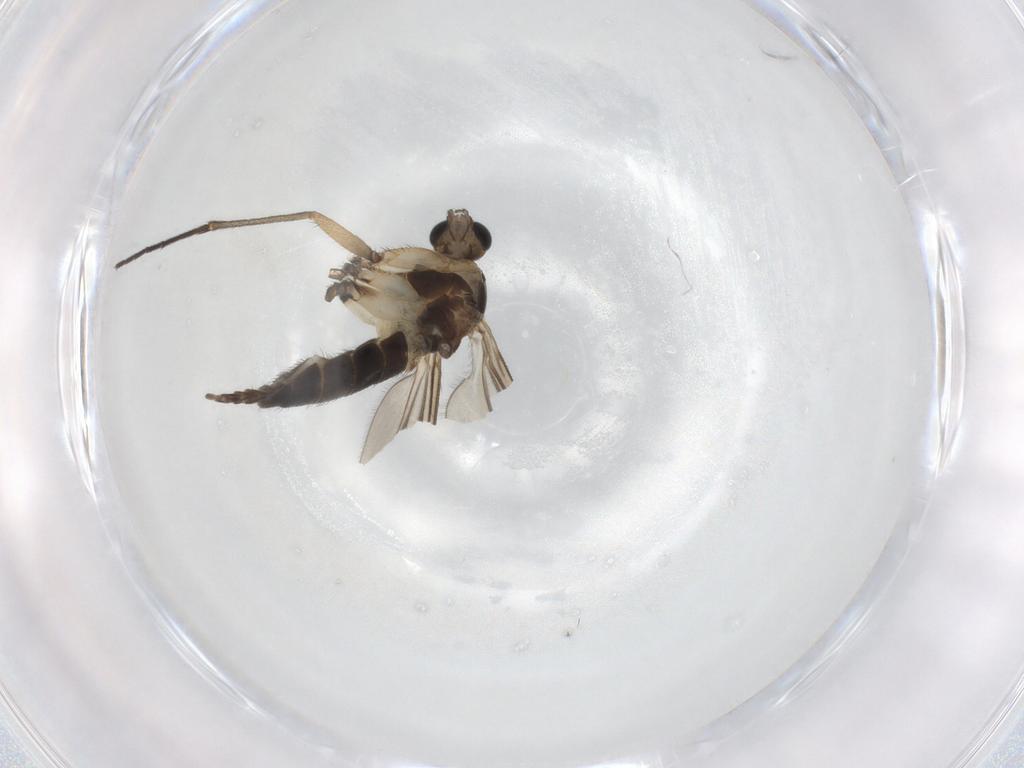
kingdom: Animalia
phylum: Arthropoda
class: Insecta
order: Diptera
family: Sciaridae
